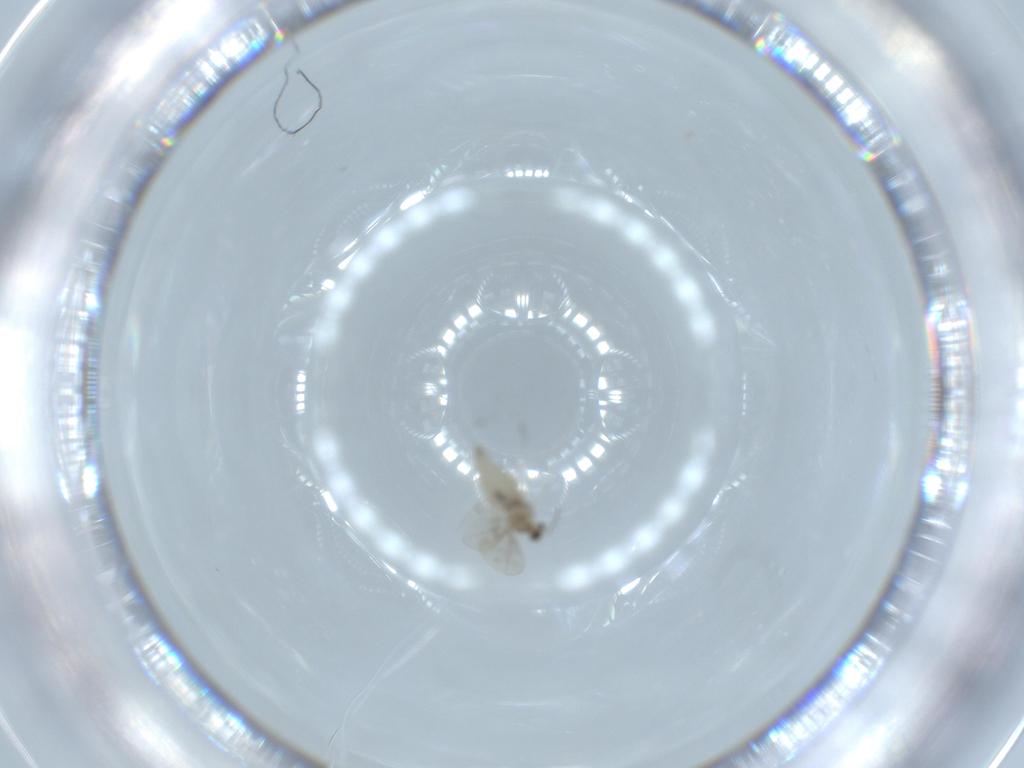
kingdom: Animalia
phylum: Arthropoda
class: Insecta
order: Diptera
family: Cecidomyiidae
